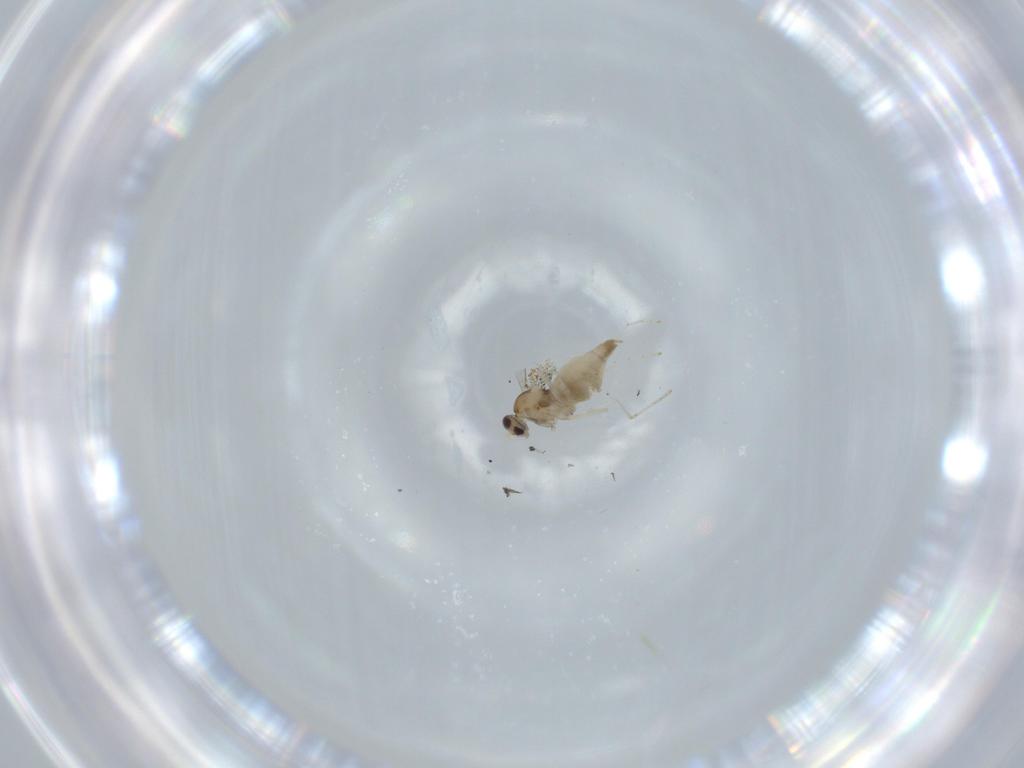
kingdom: Animalia
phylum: Arthropoda
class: Insecta
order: Diptera
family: Cecidomyiidae
